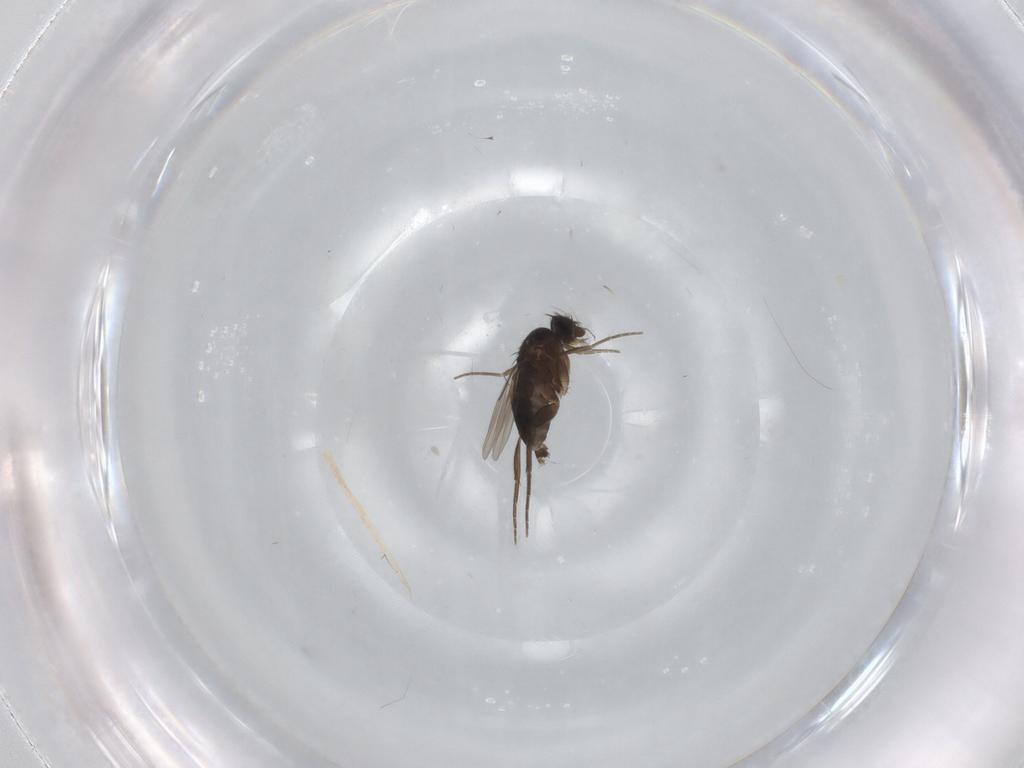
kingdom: Animalia
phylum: Arthropoda
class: Insecta
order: Diptera
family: Phoridae
